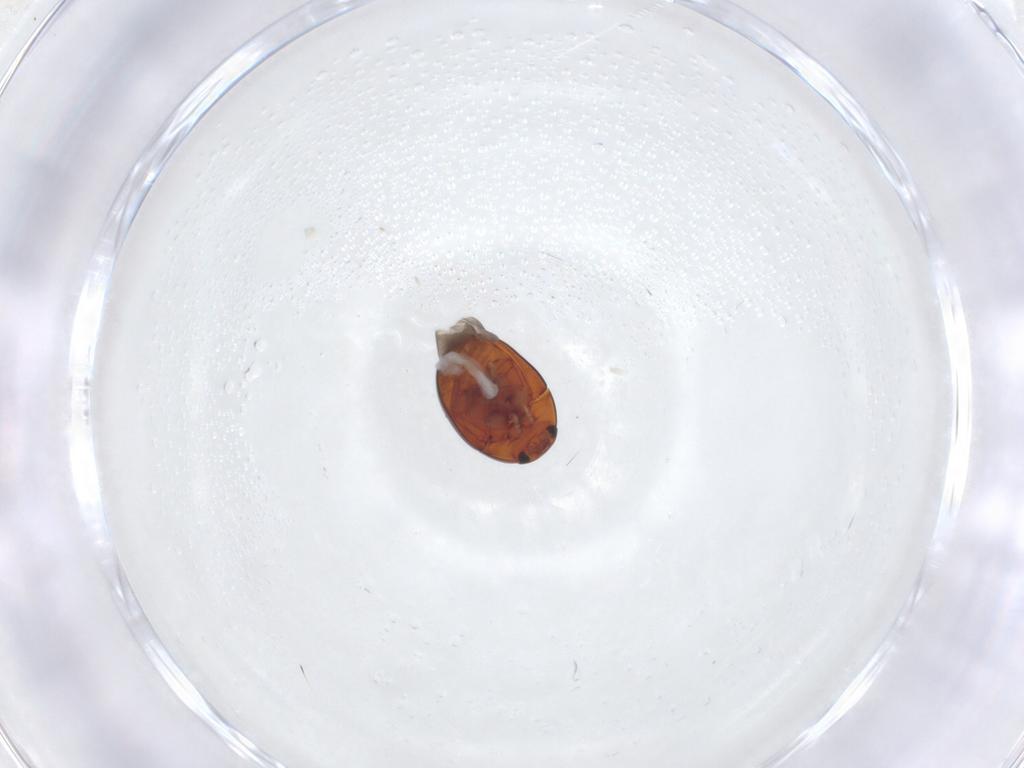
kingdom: Animalia
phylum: Arthropoda
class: Insecta
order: Coleoptera
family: Phalacridae
